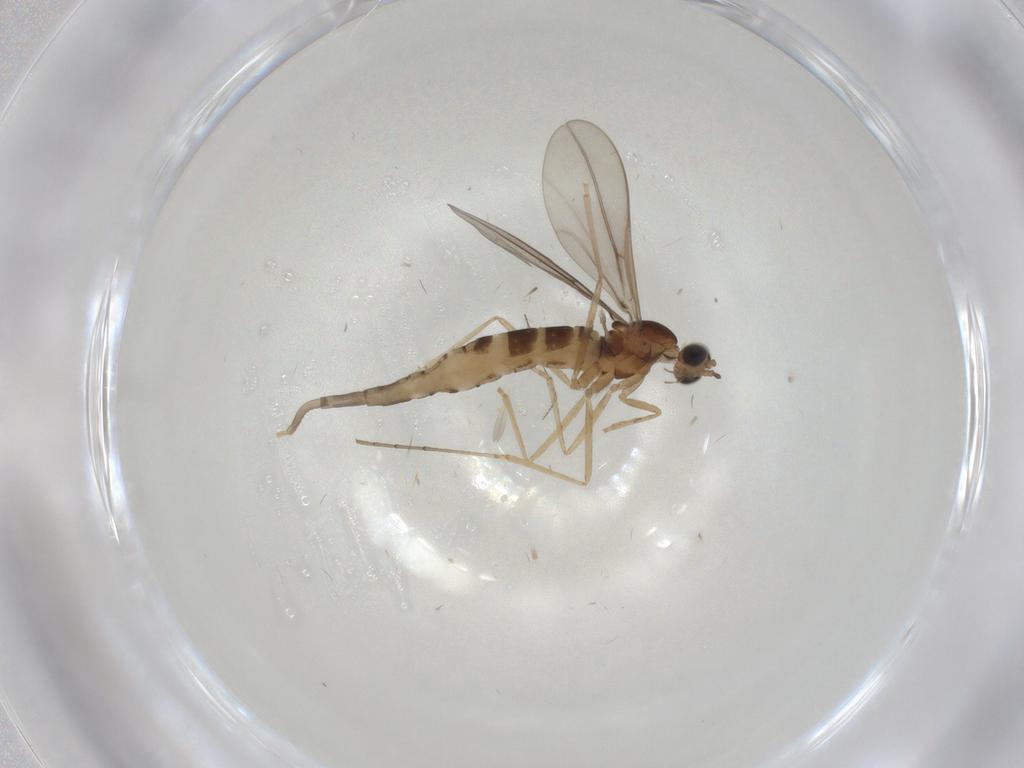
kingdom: Animalia
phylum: Arthropoda
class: Insecta
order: Diptera
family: Cecidomyiidae
